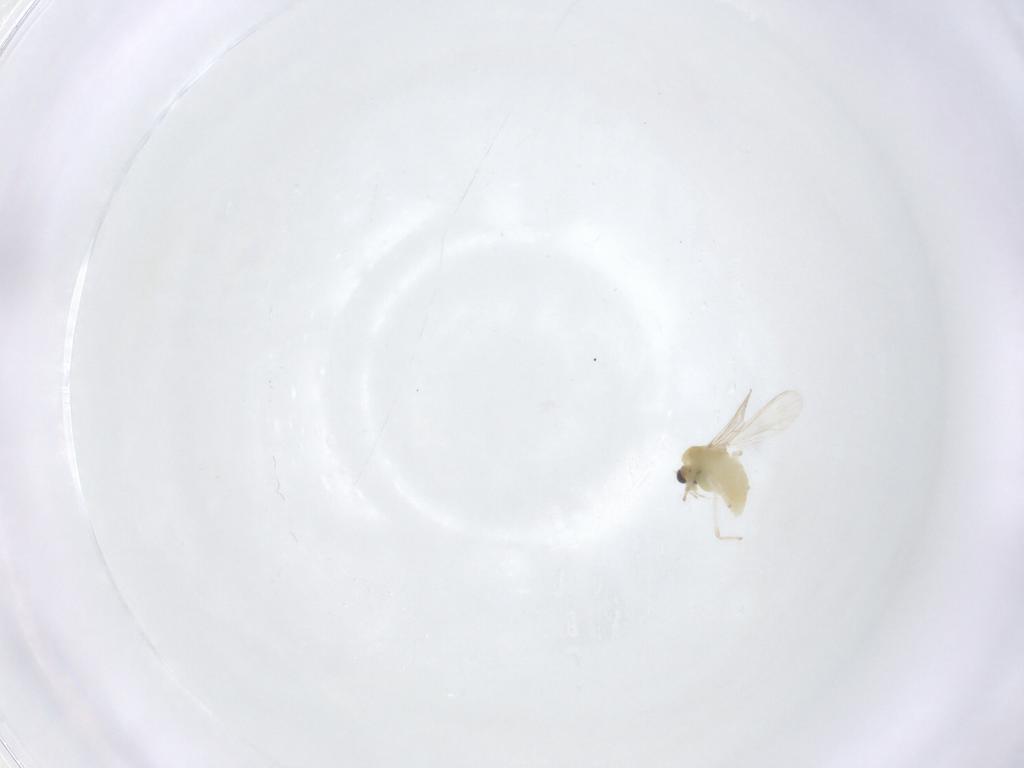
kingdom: Animalia
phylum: Arthropoda
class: Insecta
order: Diptera
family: Chironomidae
